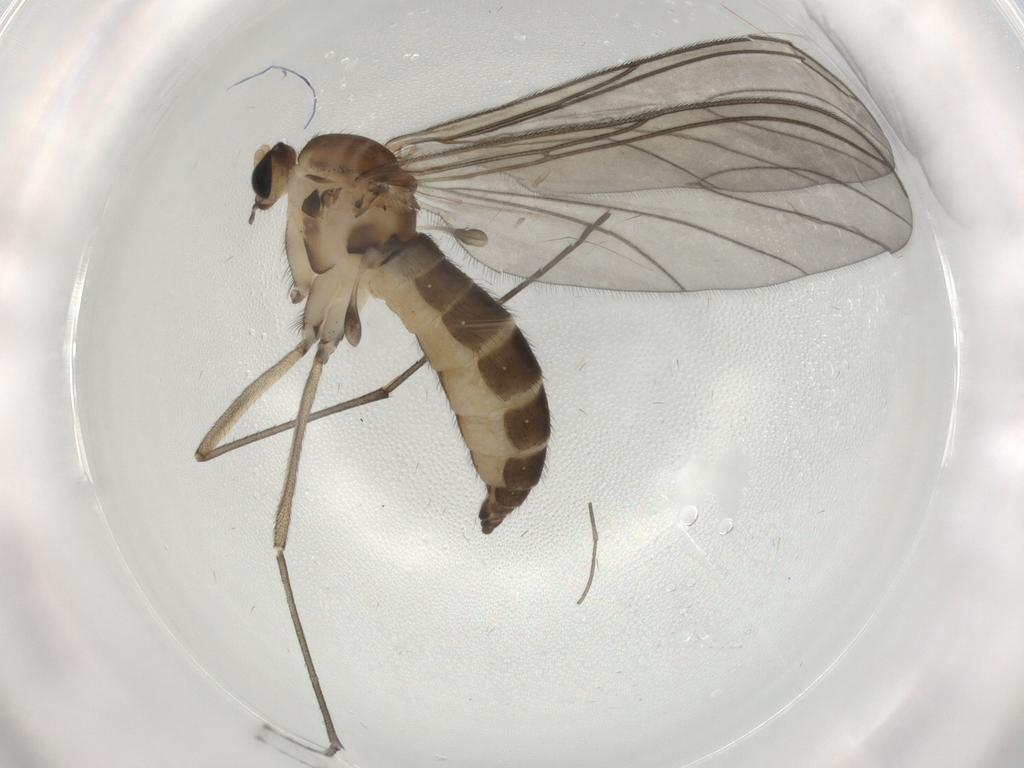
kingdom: Animalia
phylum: Arthropoda
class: Insecta
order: Diptera
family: Sciaridae
